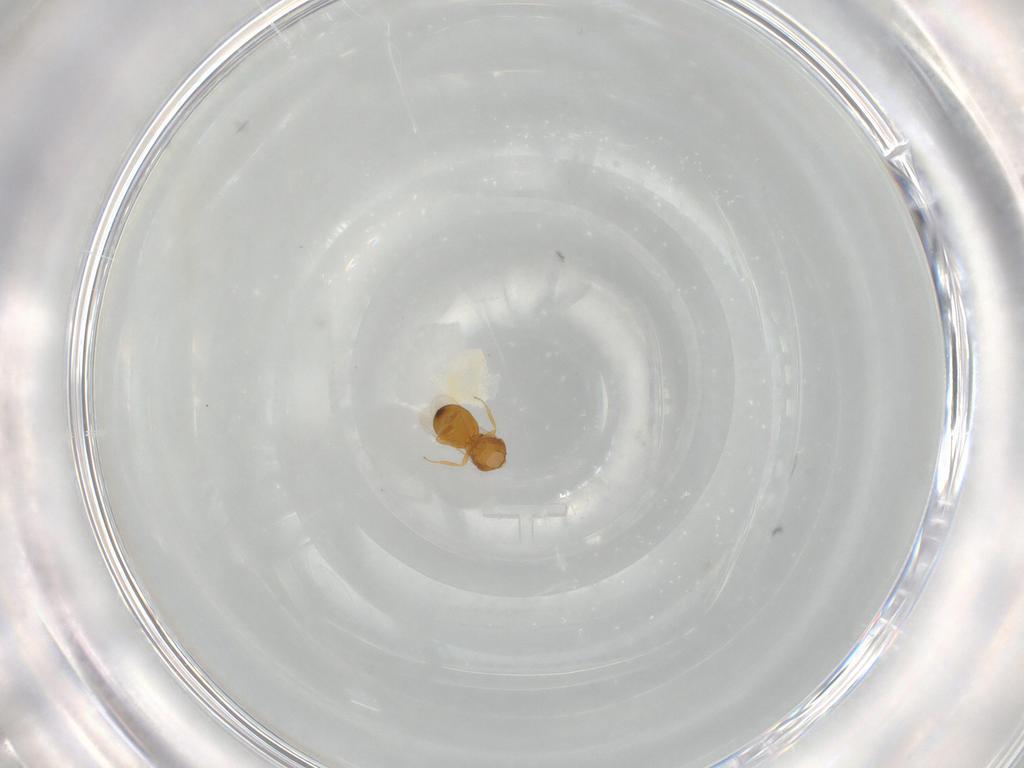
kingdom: Animalia
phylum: Arthropoda
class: Insecta
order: Hymenoptera
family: Scelionidae
